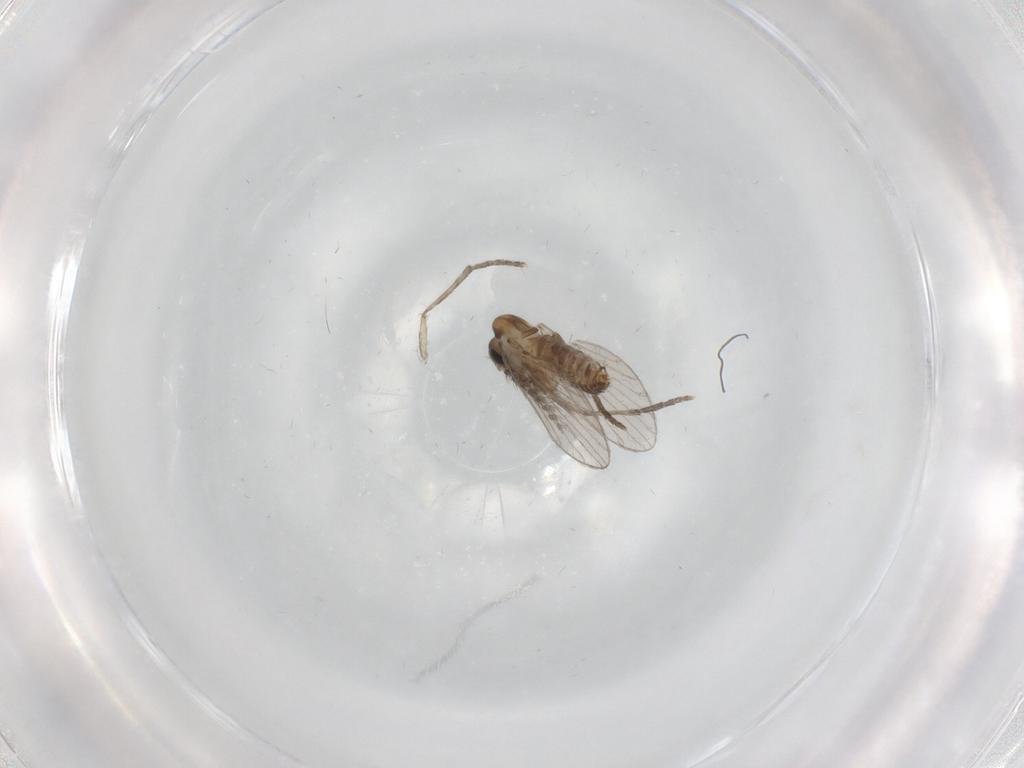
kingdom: Animalia
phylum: Arthropoda
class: Insecta
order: Diptera
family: Psychodidae
